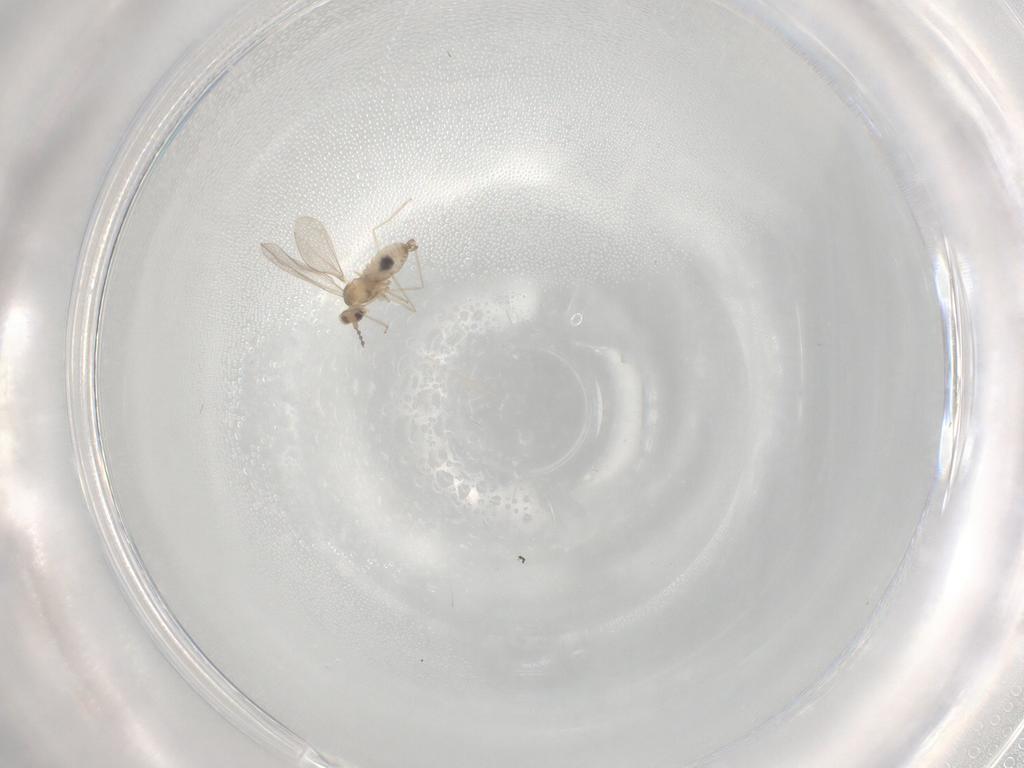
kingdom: Animalia
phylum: Arthropoda
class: Insecta
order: Diptera
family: Cecidomyiidae
